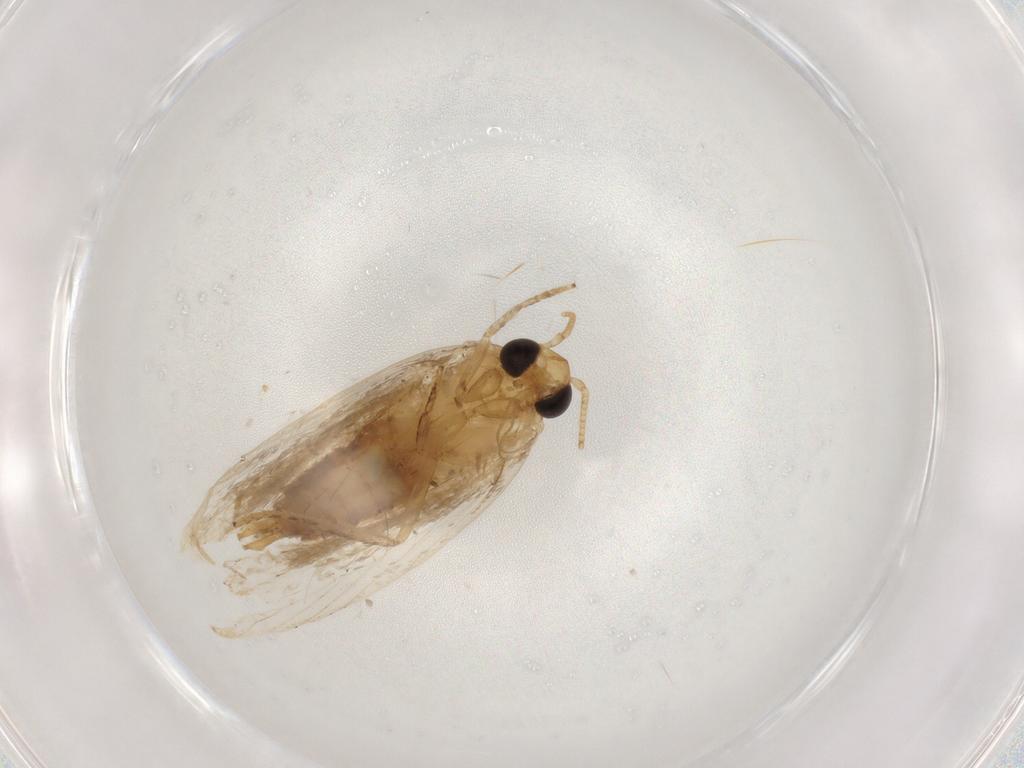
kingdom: Animalia
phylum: Arthropoda
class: Insecta
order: Lepidoptera
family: Depressariidae
